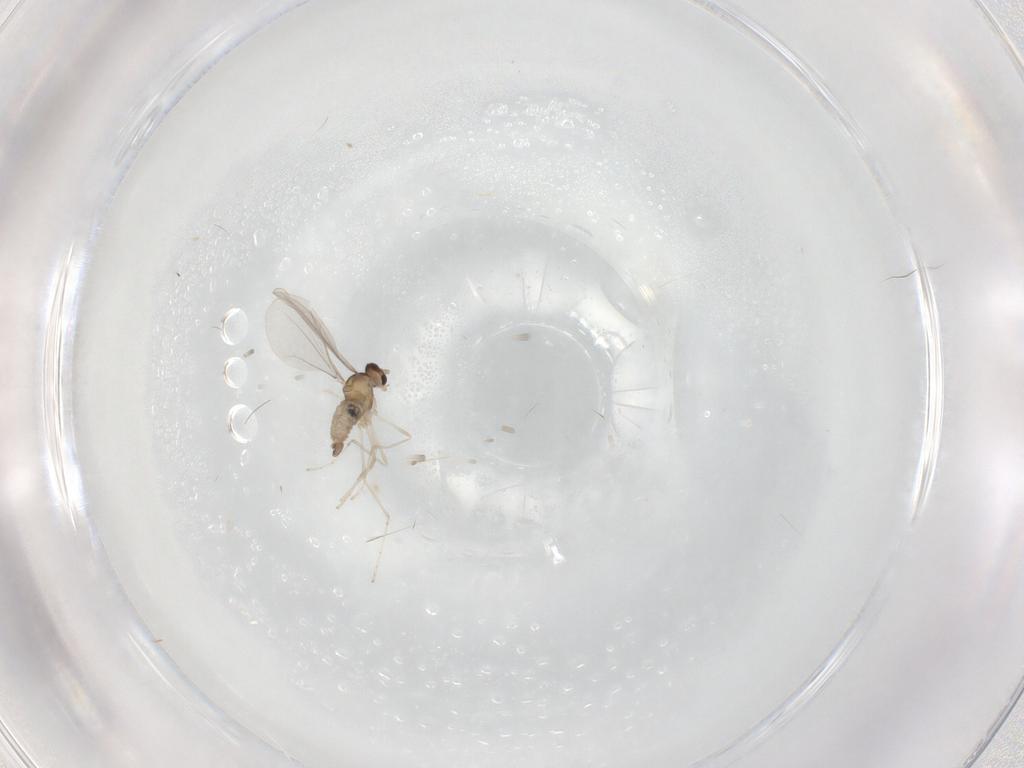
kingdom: Animalia
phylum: Arthropoda
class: Insecta
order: Diptera
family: Cecidomyiidae
